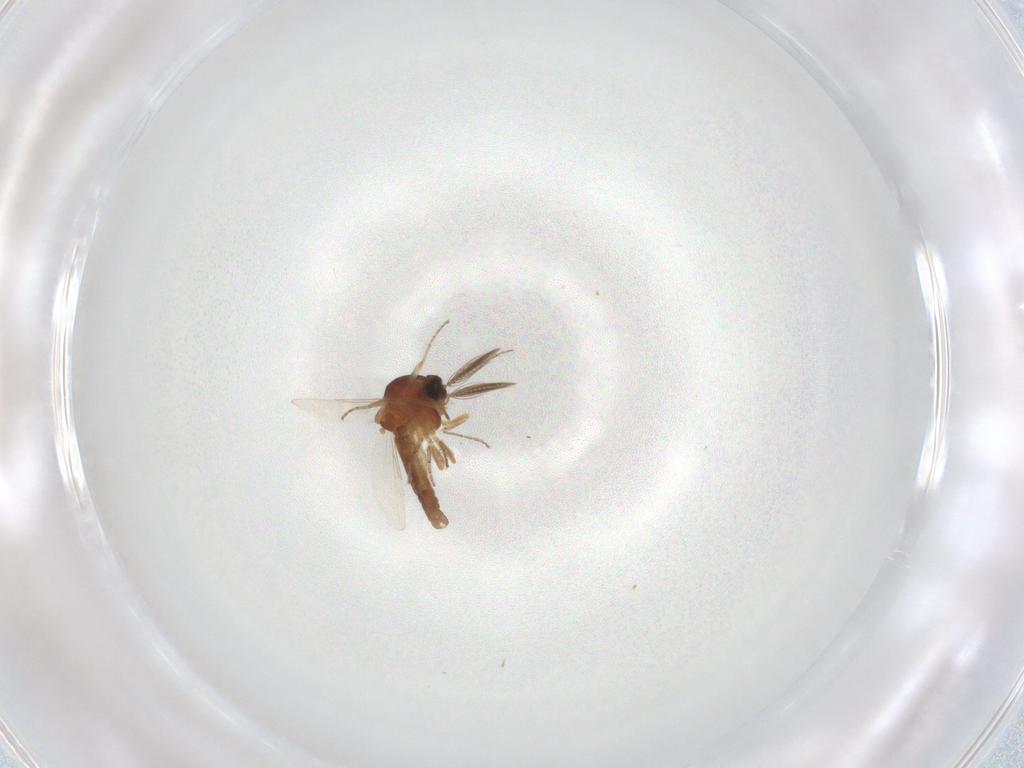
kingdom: Animalia
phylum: Arthropoda
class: Insecta
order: Diptera
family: Ceratopogonidae
